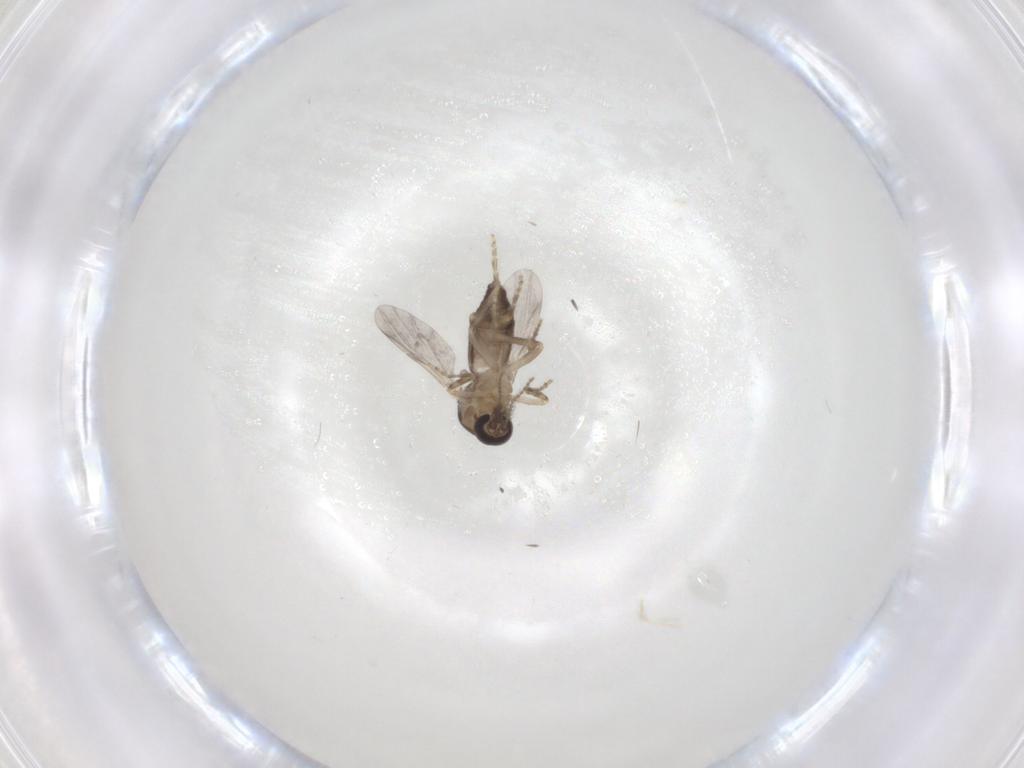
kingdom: Animalia
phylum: Arthropoda
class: Insecta
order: Diptera
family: Ceratopogonidae
